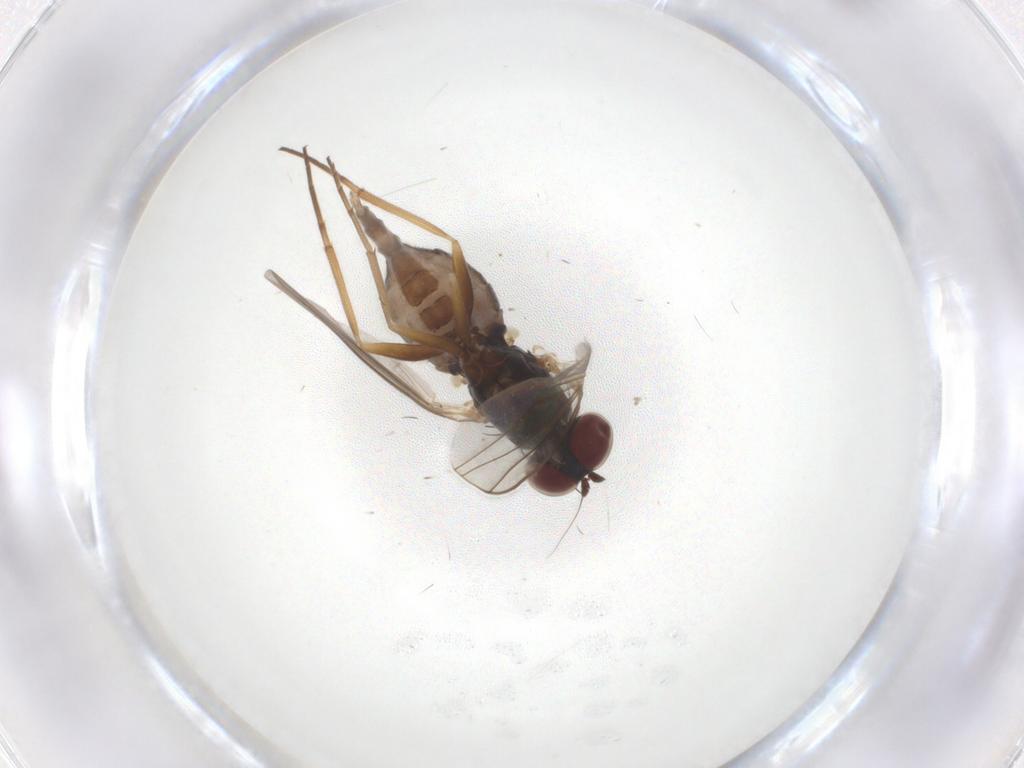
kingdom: Animalia
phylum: Arthropoda
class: Insecta
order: Diptera
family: Dolichopodidae
